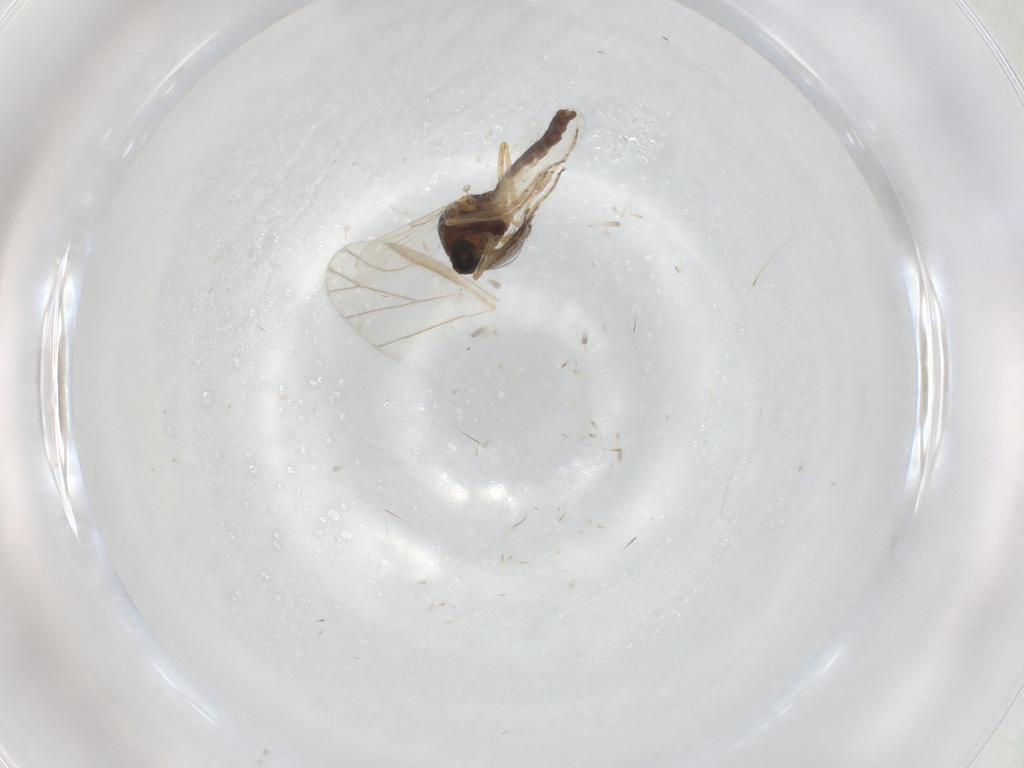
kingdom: Animalia
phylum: Arthropoda
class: Insecta
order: Diptera
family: Ceratopogonidae
